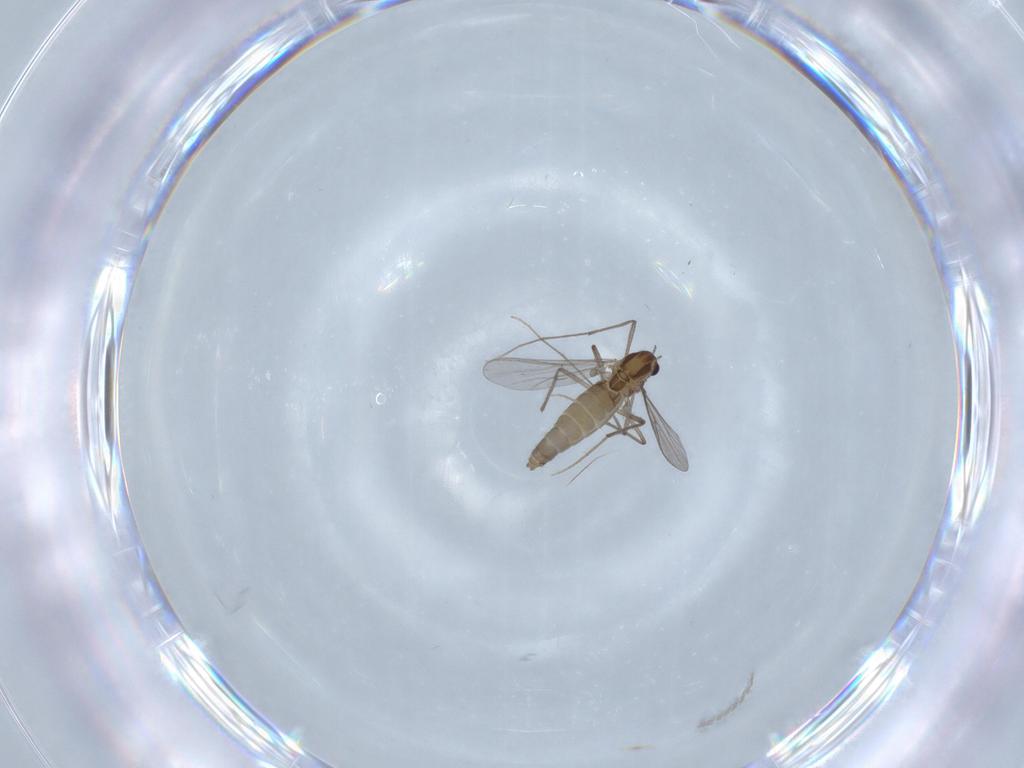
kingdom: Animalia
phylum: Arthropoda
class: Insecta
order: Diptera
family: Chironomidae
